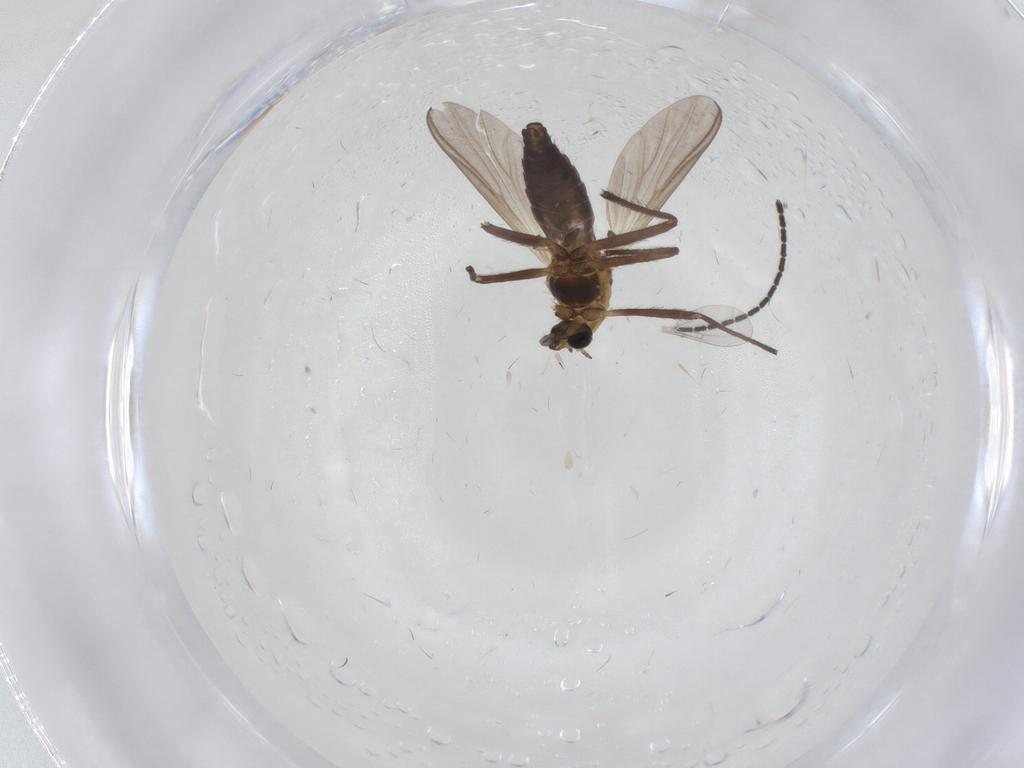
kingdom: Animalia
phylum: Arthropoda
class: Insecta
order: Diptera
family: Chironomidae
